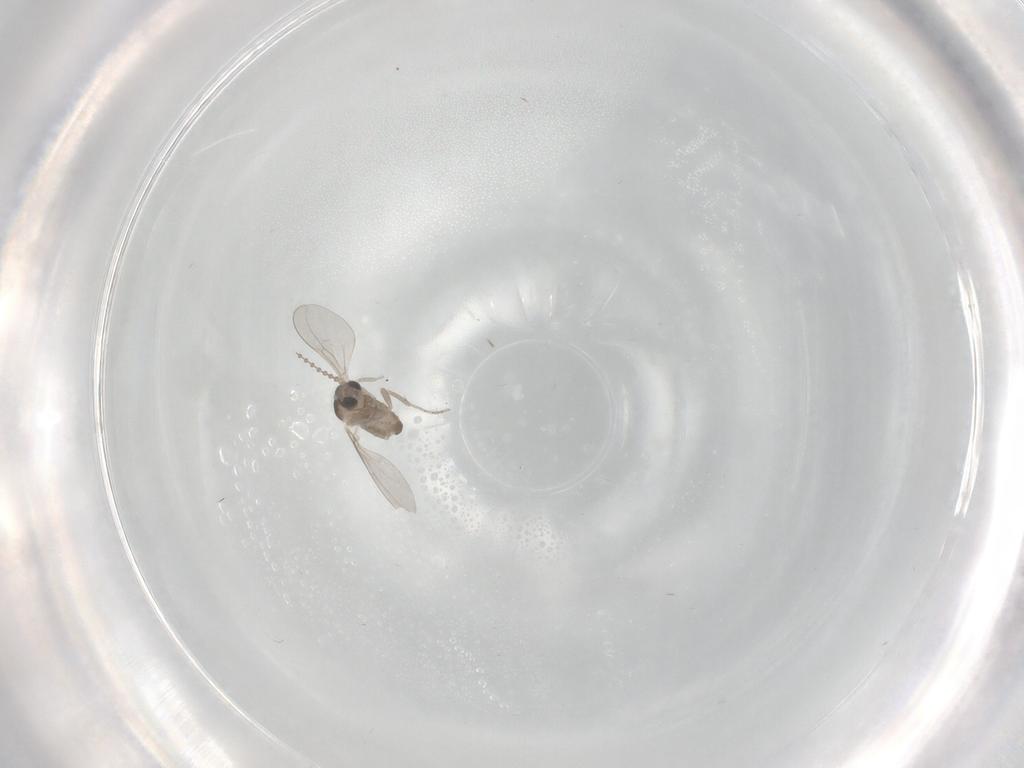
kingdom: Animalia
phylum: Arthropoda
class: Insecta
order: Diptera
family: Cecidomyiidae
